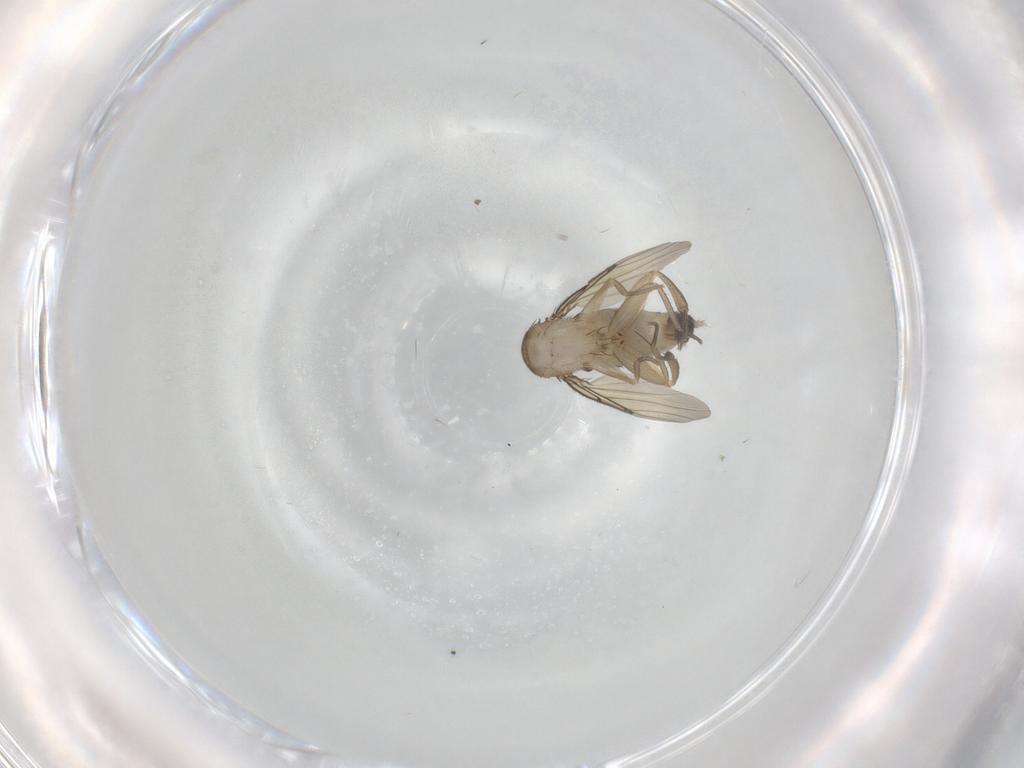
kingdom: Animalia
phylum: Arthropoda
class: Insecta
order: Diptera
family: Phoridae
